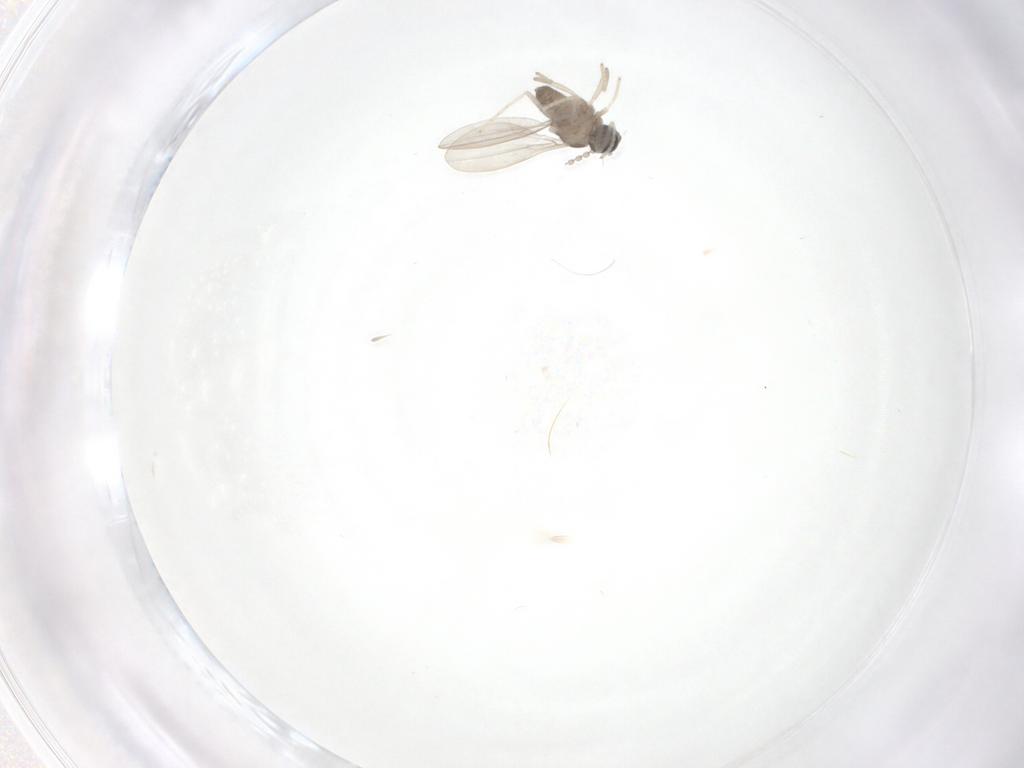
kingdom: Animalia
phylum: Arthropoda
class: Insecta
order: Diptera
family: Cecidomyiidae
